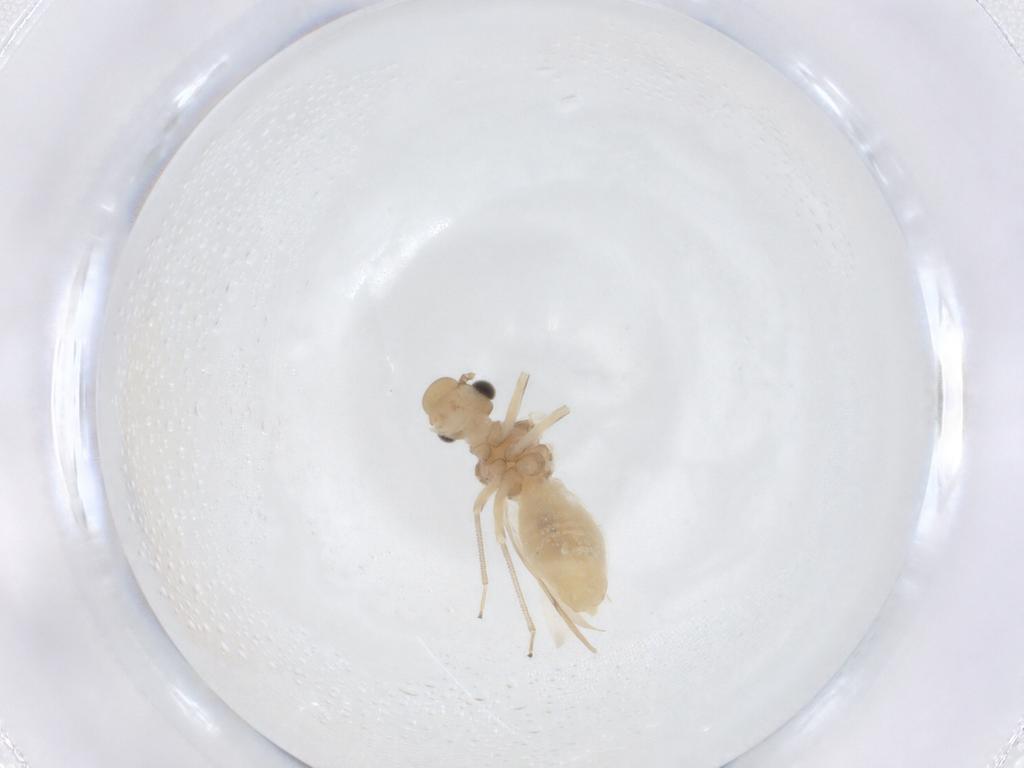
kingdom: Animalia
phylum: Arthropoda
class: Insecta
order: Psocodea
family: Caeciliusidae
